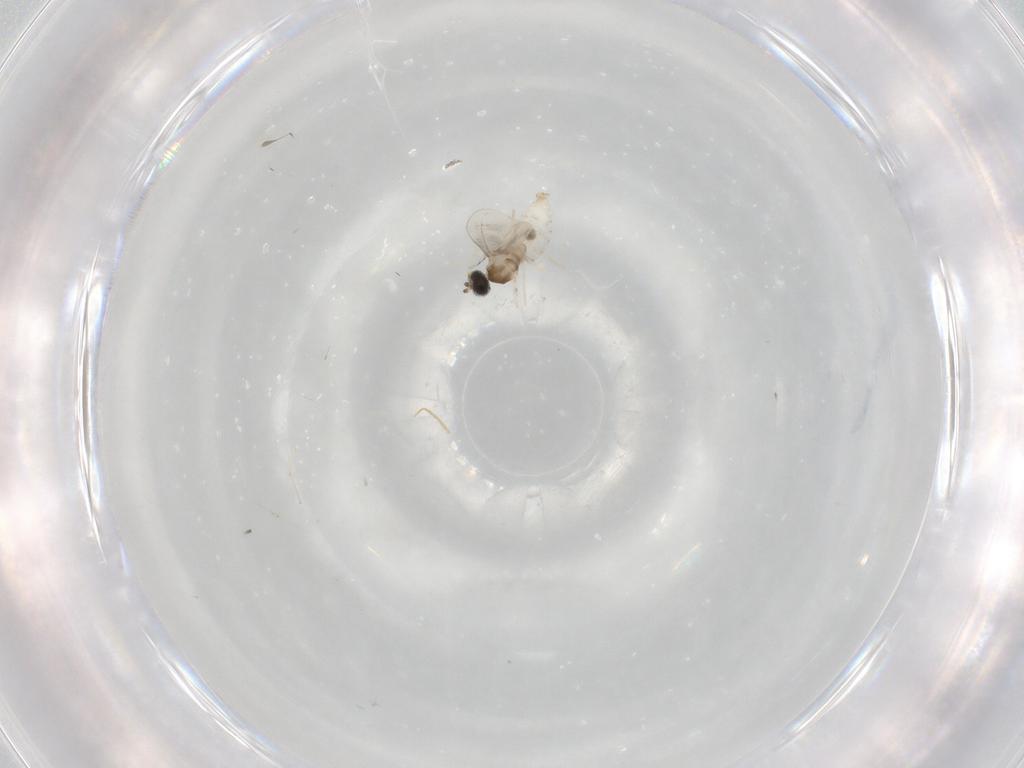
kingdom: Animalia
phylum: Arthropoda
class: Insecta
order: Diptera
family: Cecidomyiidae
